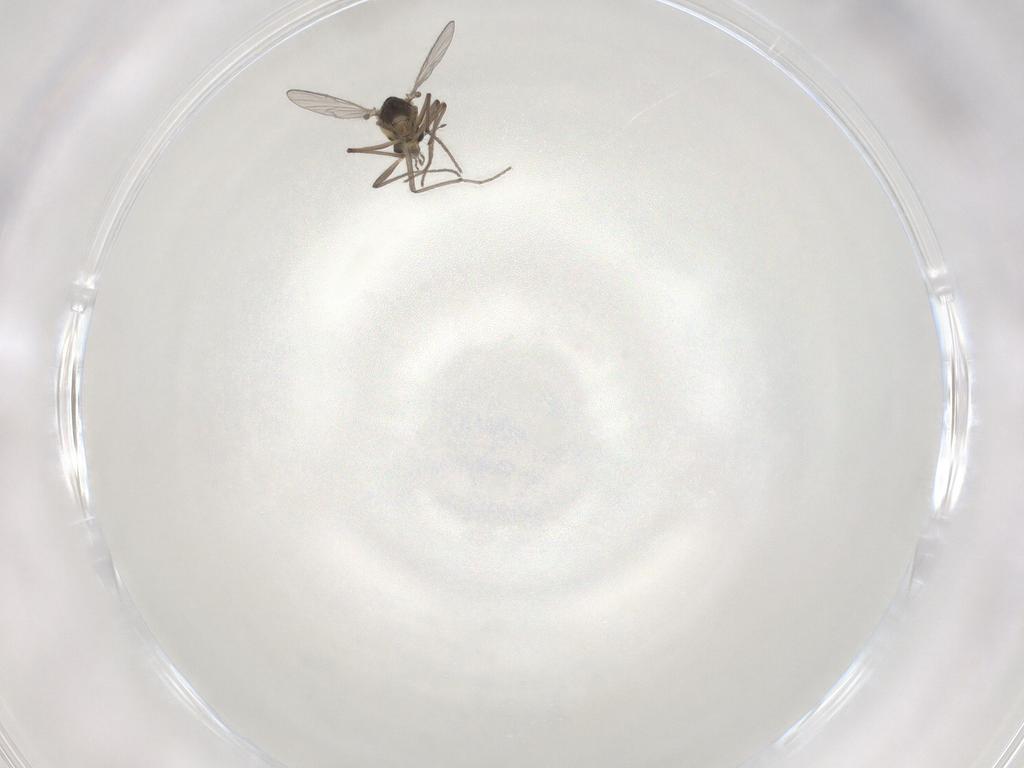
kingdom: Animalia
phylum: Arthropoda
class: Insecta
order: Diptera
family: Chironomidae
